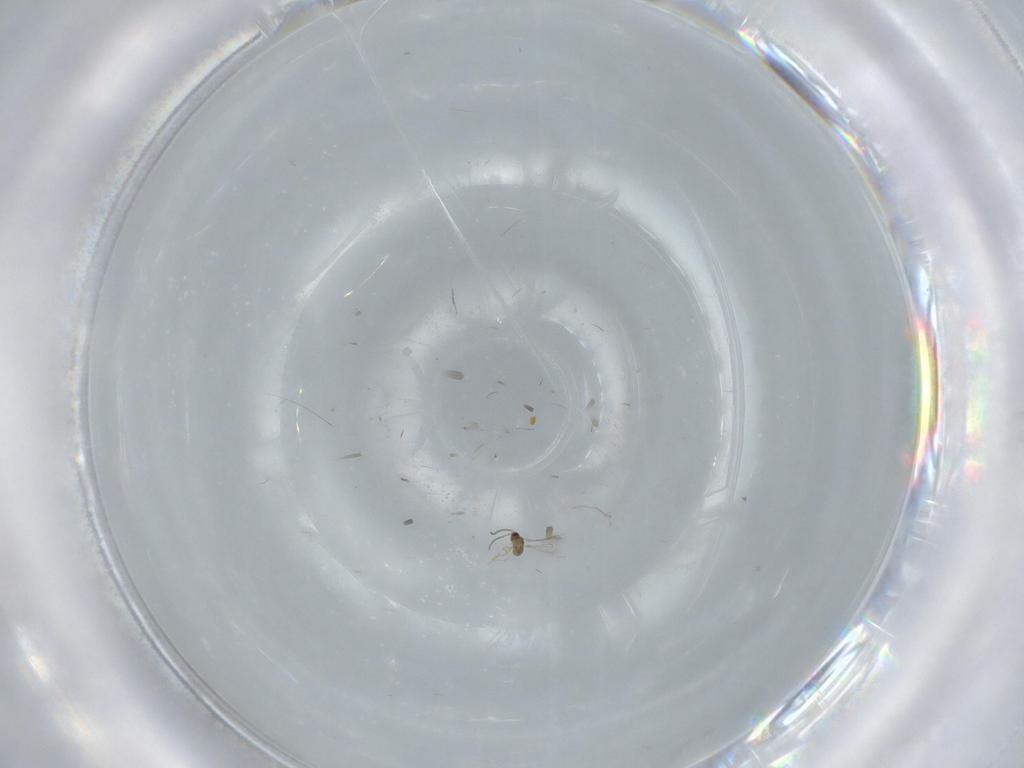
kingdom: Animalia
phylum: Arthropoda
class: Insecta
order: Hymenoptera
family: Scelionidae
